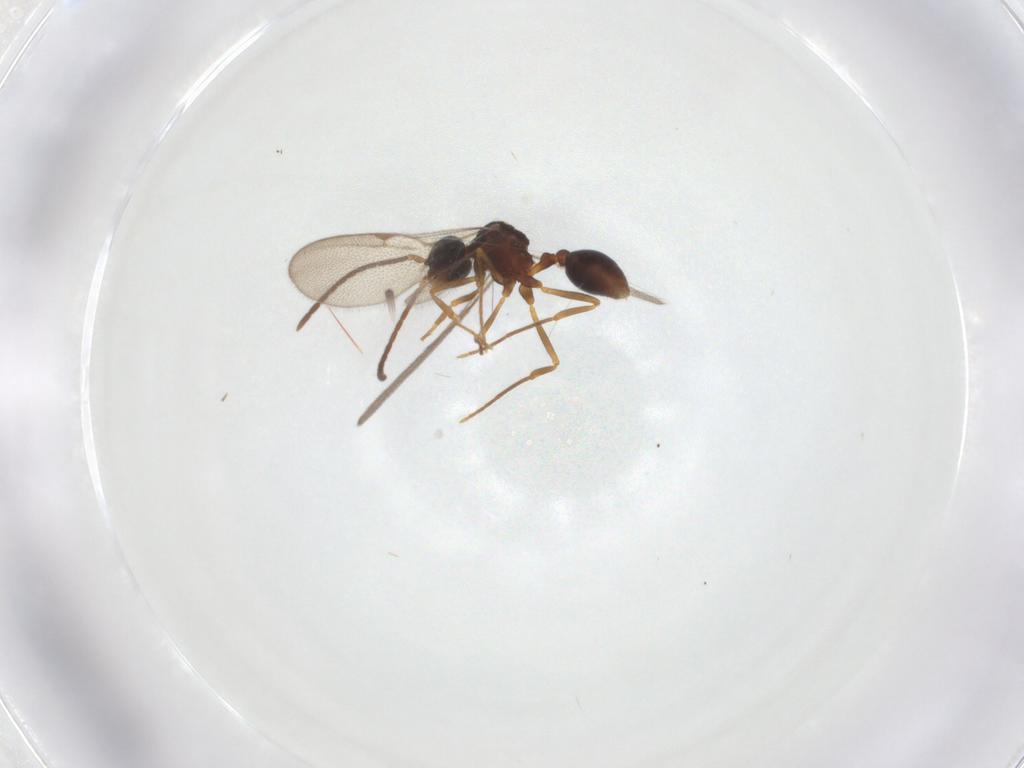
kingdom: Animalia
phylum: Arthropoda
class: Insecta
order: Hymenoptera
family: Formicidae
